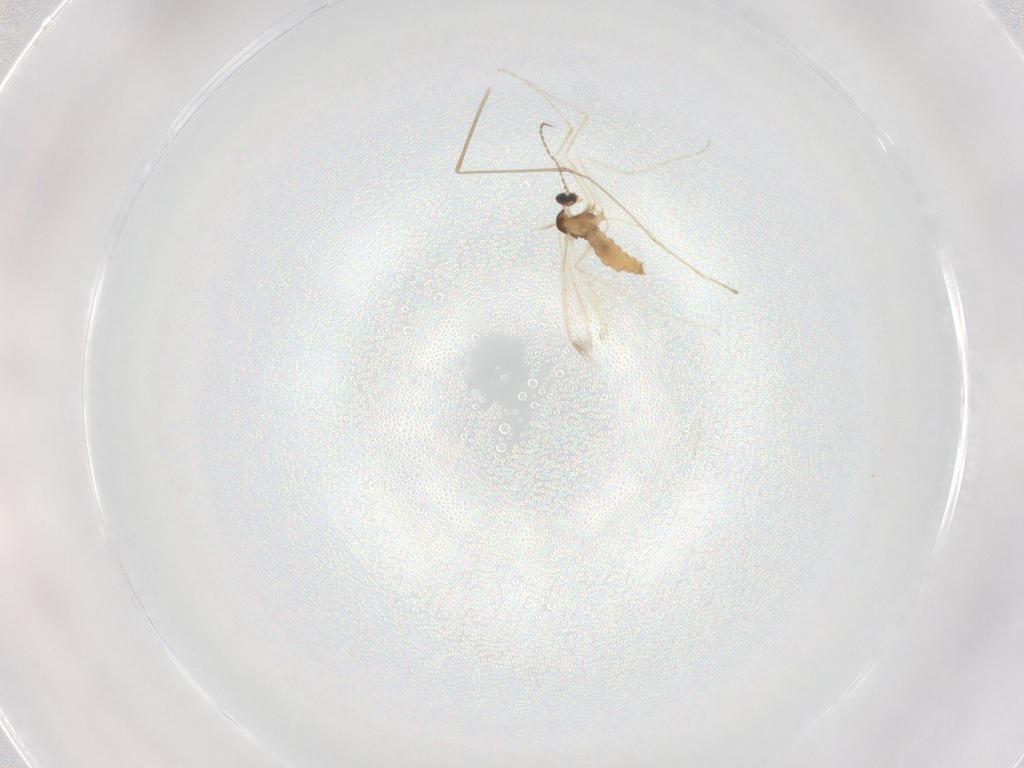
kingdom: Animalia
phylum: Arthropoda
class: Insecta
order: Diptera
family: Cecidomyiidae
